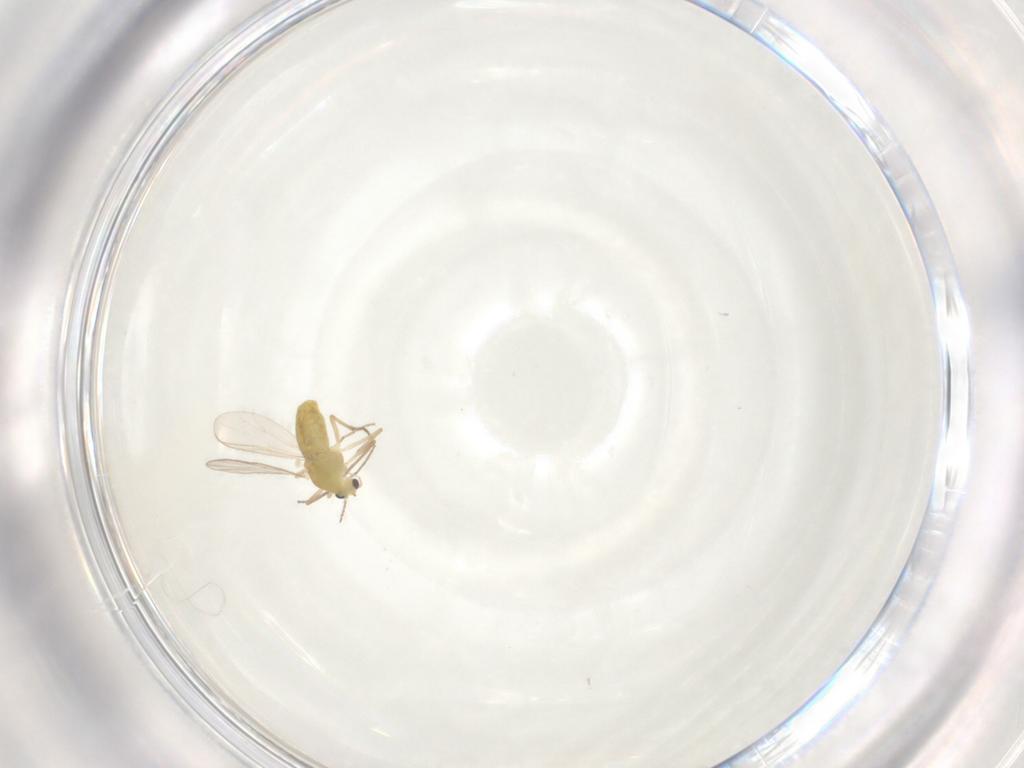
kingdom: Animalia
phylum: Arthropoda
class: Insecta
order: Diptera
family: Chironomidae
